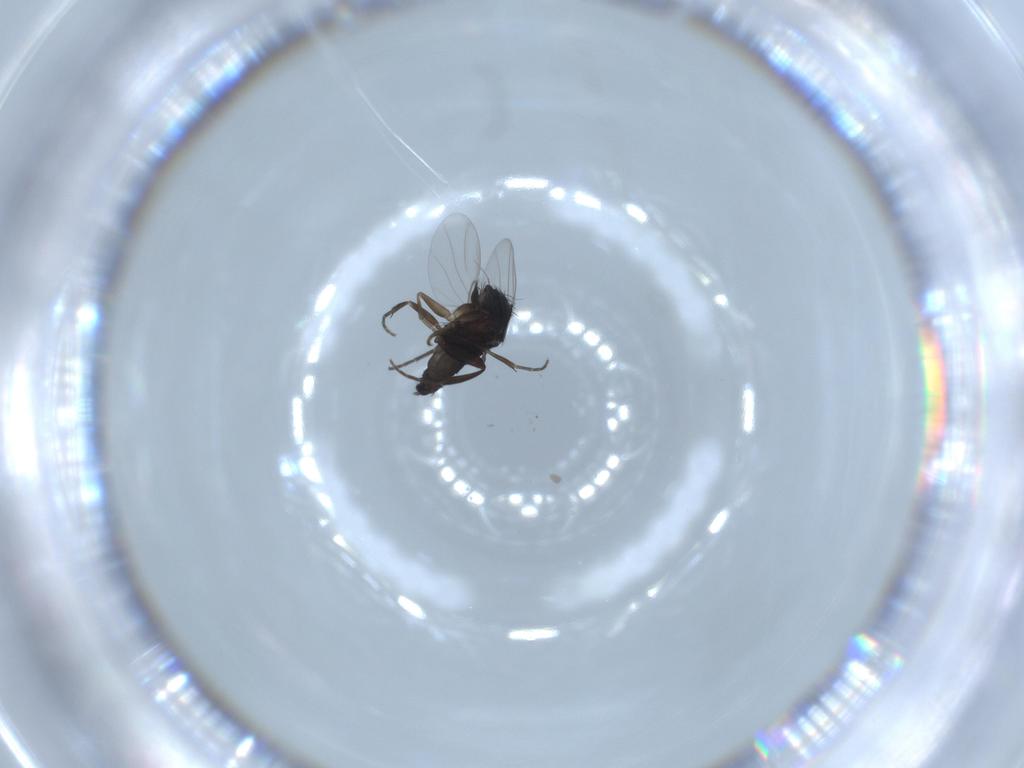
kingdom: Animalia
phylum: Arthropoda
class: Insecta
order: Diptera
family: Phoridae
